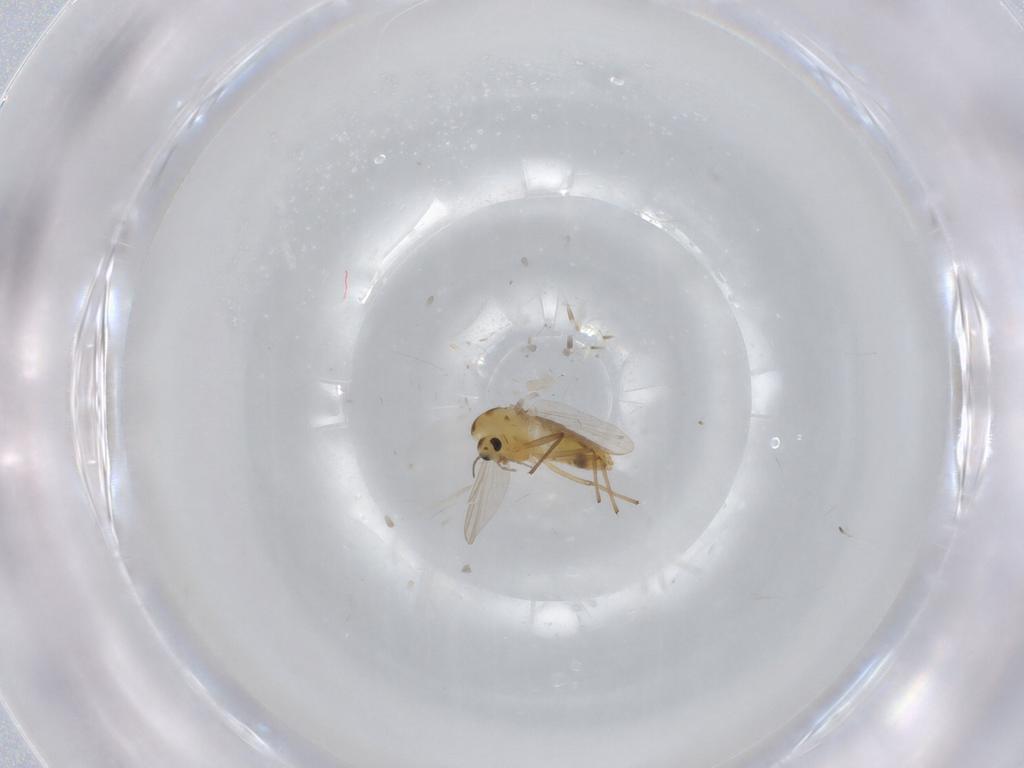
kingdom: Animalia
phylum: Arthropoda
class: Insecta
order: Diptera
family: Chironomidae
